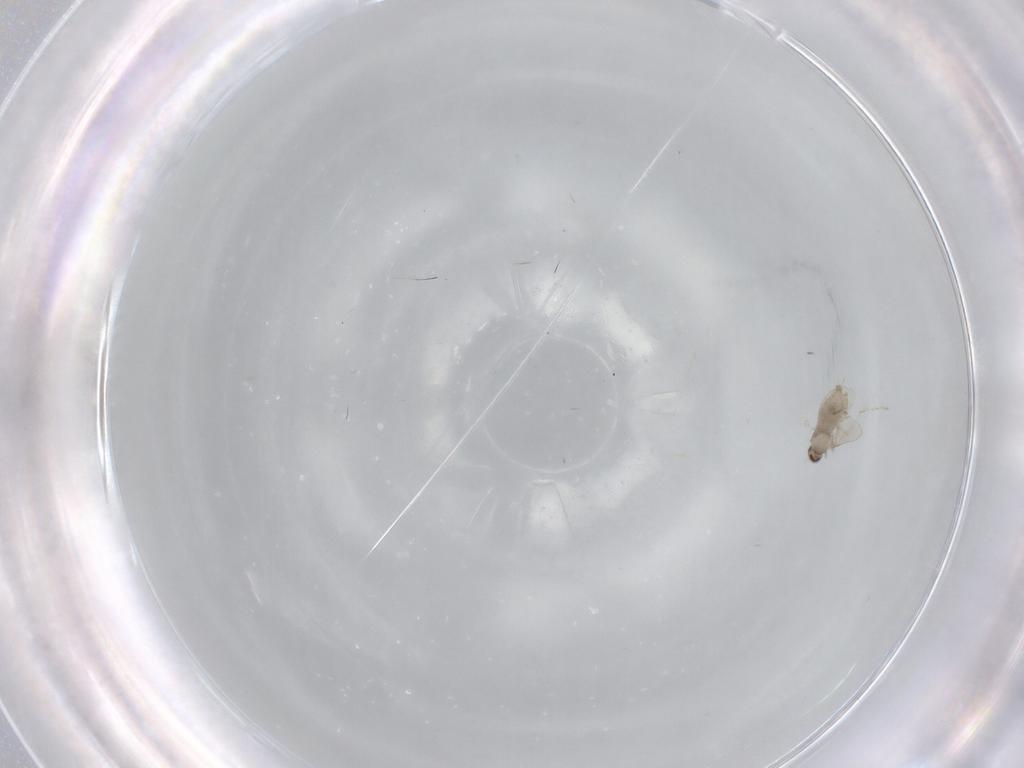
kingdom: Animalia
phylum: Arthropoda
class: Insecta
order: Diptera
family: Cecidomyiidae
